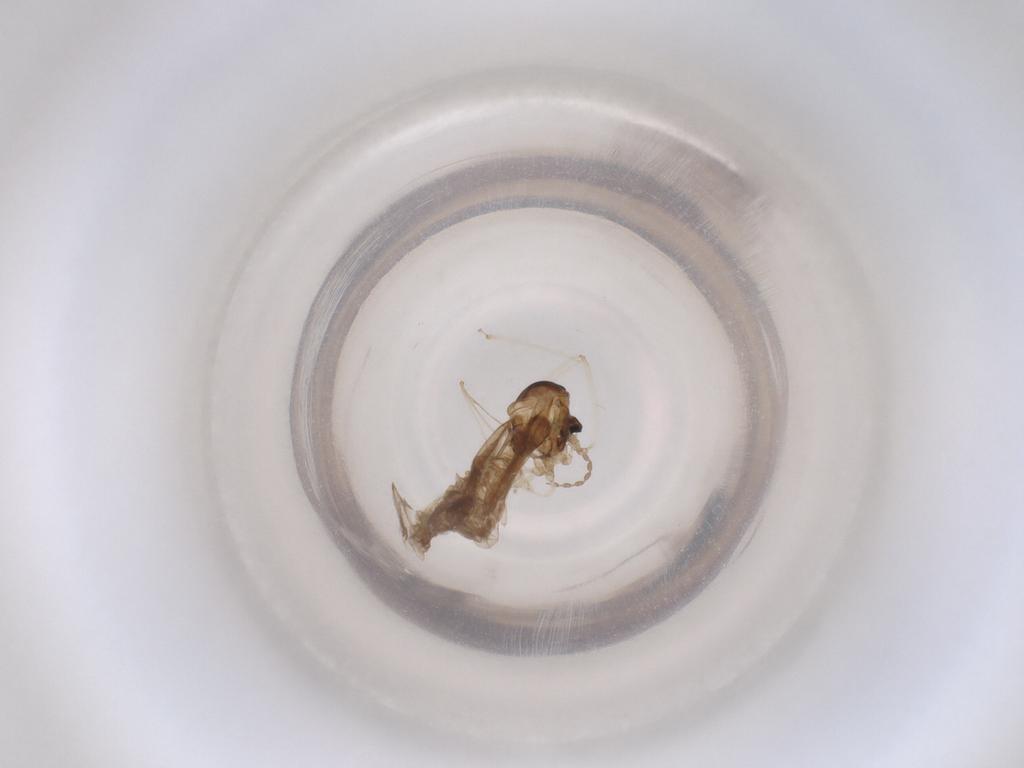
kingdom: Animalia
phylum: Arthropoda
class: Insecta
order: Diptera
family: Cecidomyiidae
